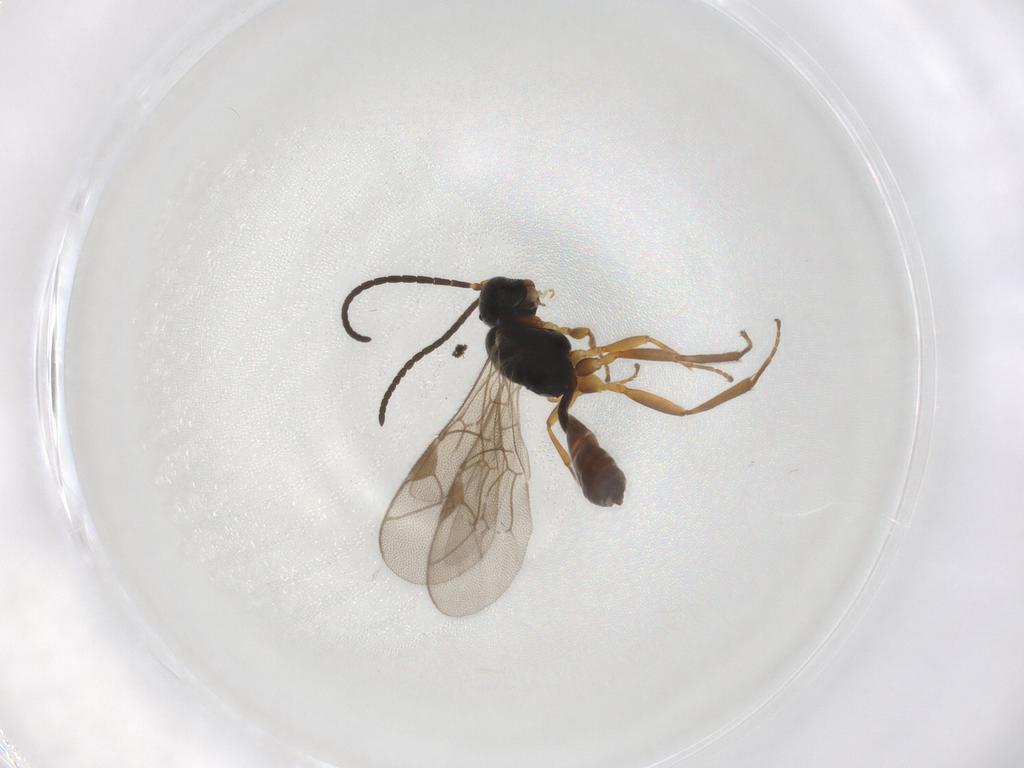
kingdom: Animalia
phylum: Arthropoda
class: Insecta
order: Hymenoptera
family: Ichneumonidae
